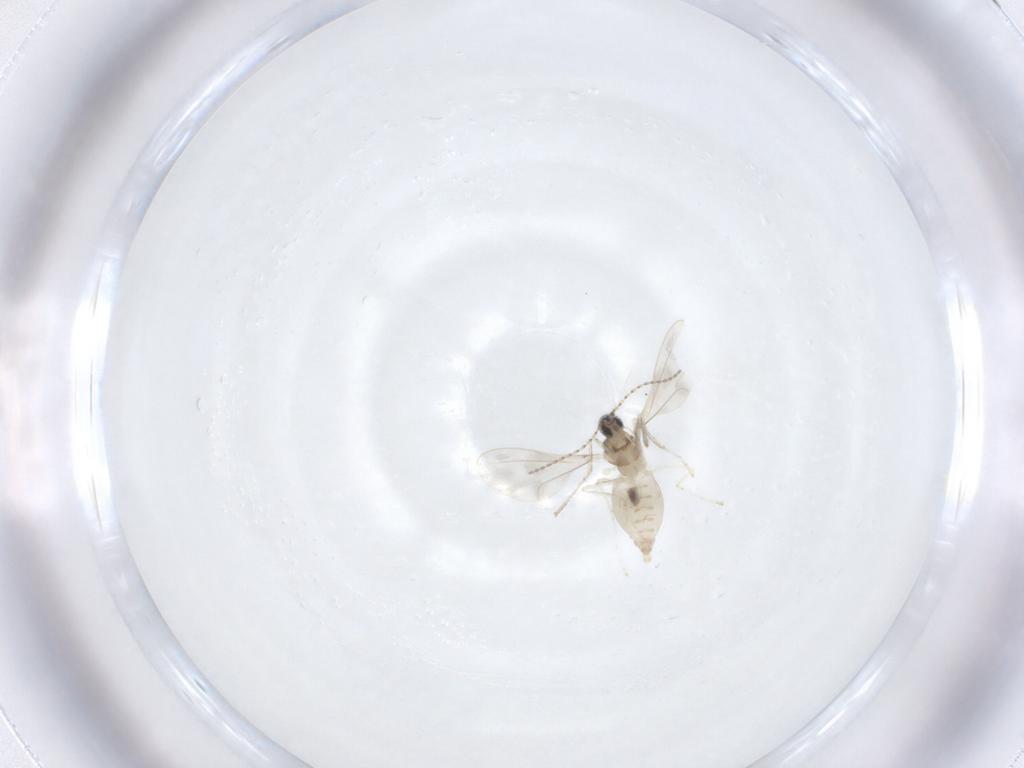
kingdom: Animalia
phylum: Arthropoda
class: Insecta
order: Diptera
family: Cecidomyiidae
